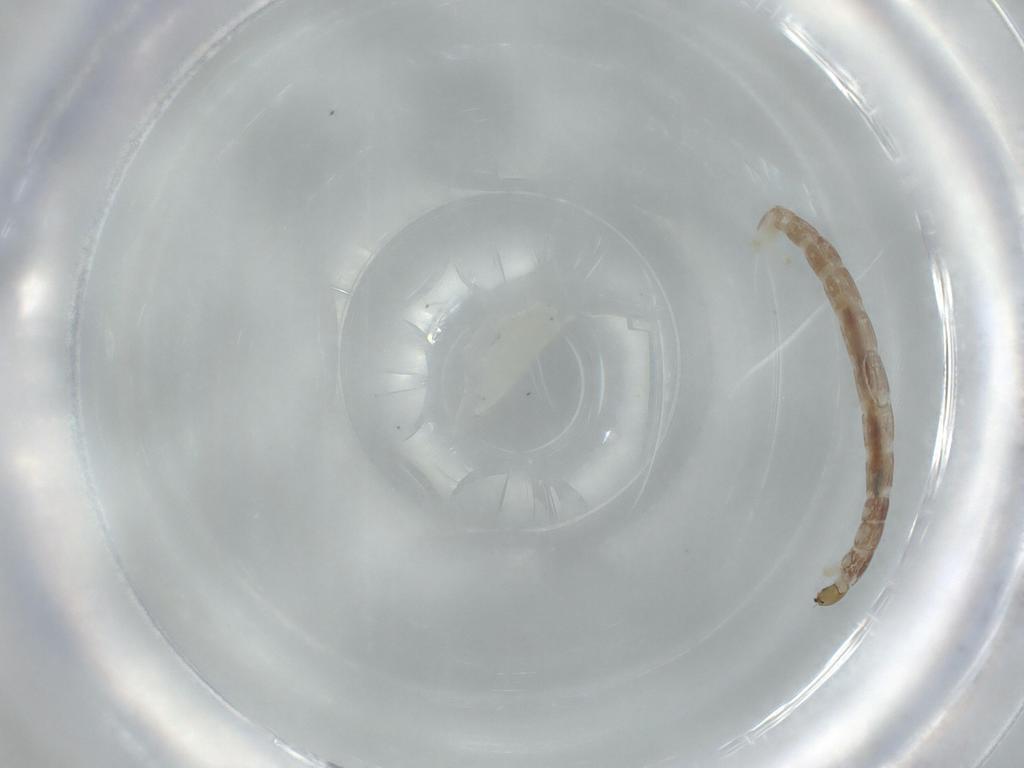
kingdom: Animalia
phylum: Arthropoda
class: Insecta
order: Diptera
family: Chironomidae
